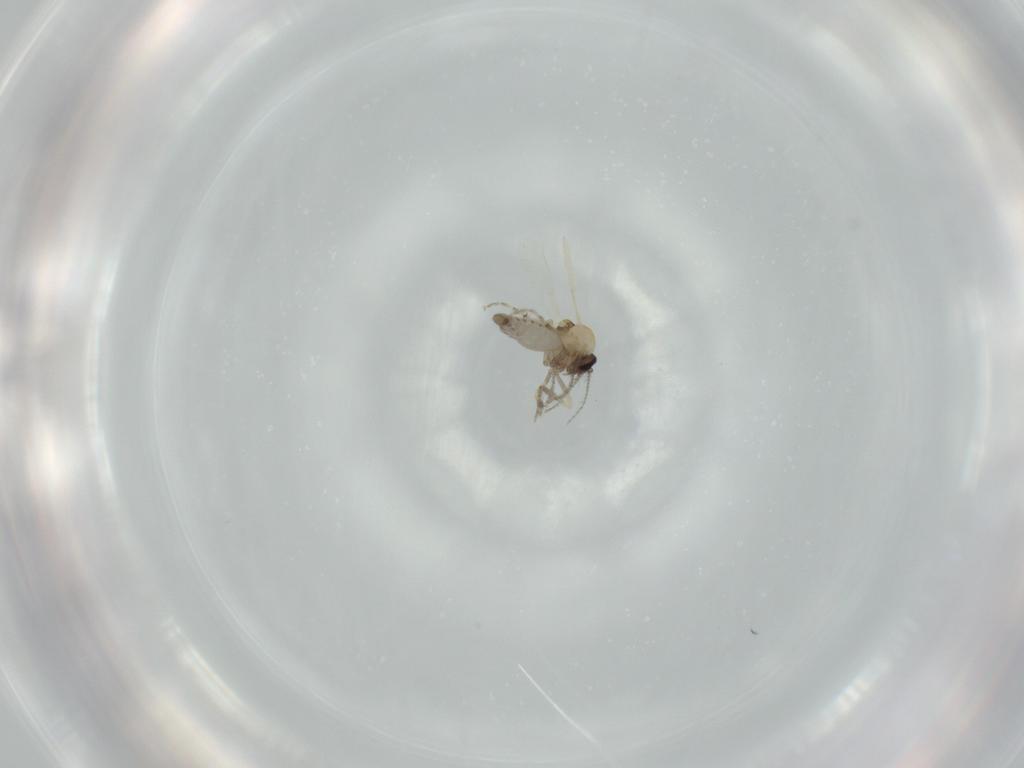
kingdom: Animalia
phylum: Arthropoda
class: Insecta
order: Diptera
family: Ceratopogonidae
